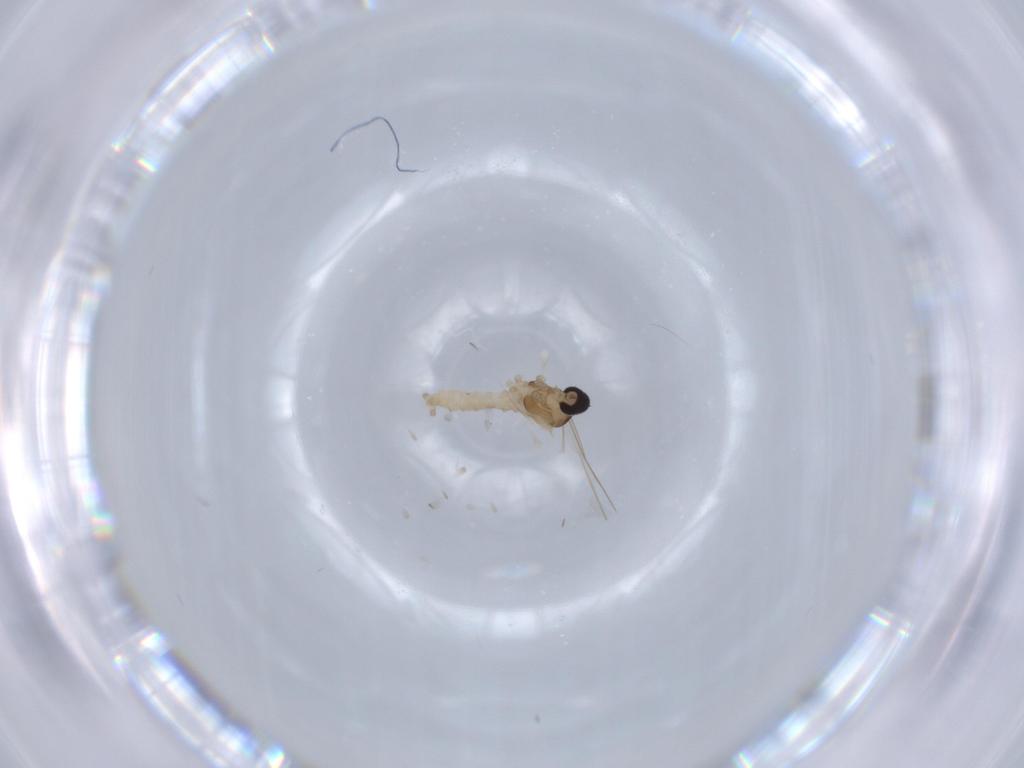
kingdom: Animalia
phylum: Arthropoda
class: Insecta
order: Diptera
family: Cecidomyiidae
